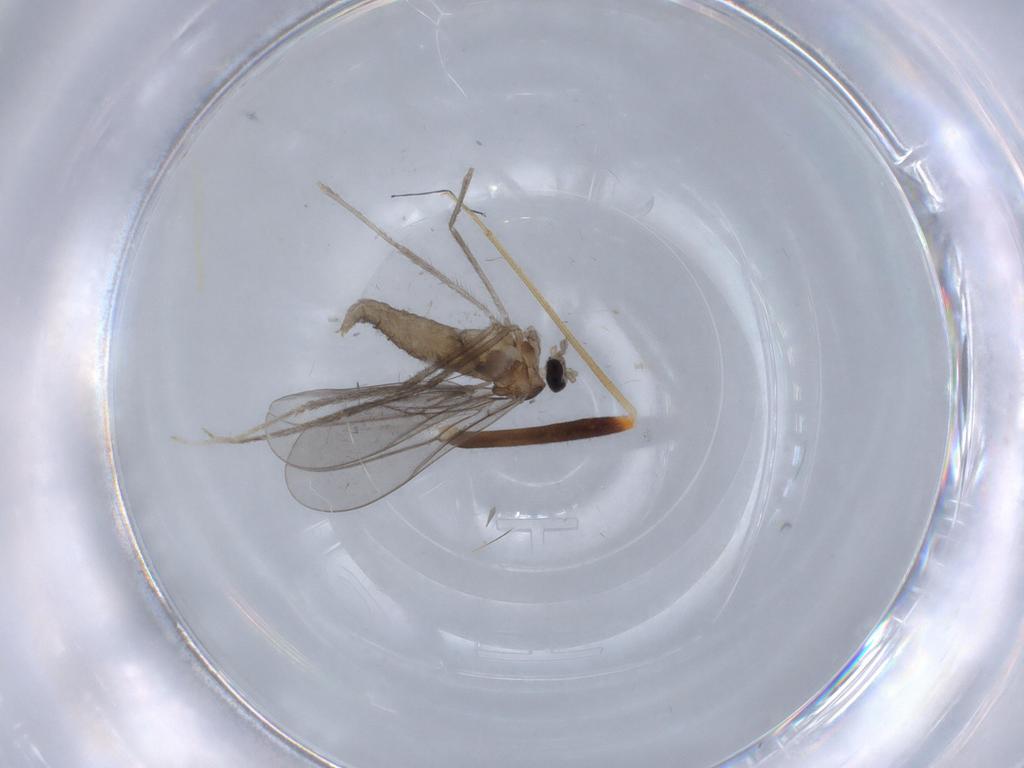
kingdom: Animalia
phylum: Arthropoda
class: Insecta
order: Diptera
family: Cecidomyiidae
